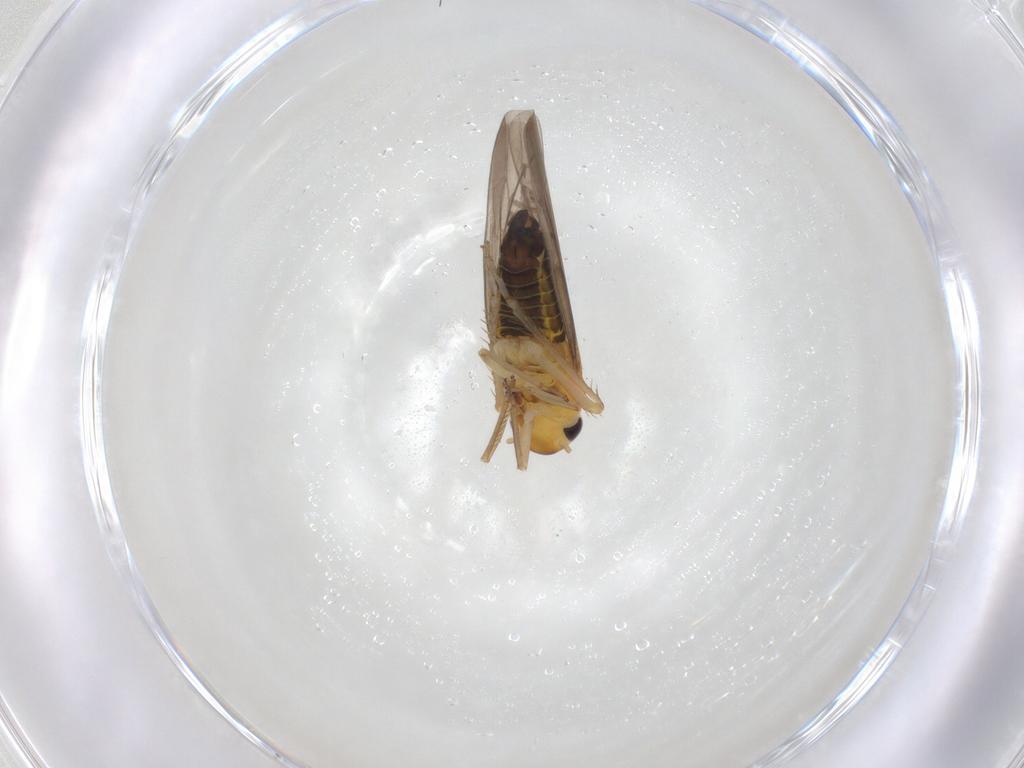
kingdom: Animalia
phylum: Arthropoda
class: Insecta
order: Hemiptera
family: Cicadellidae
